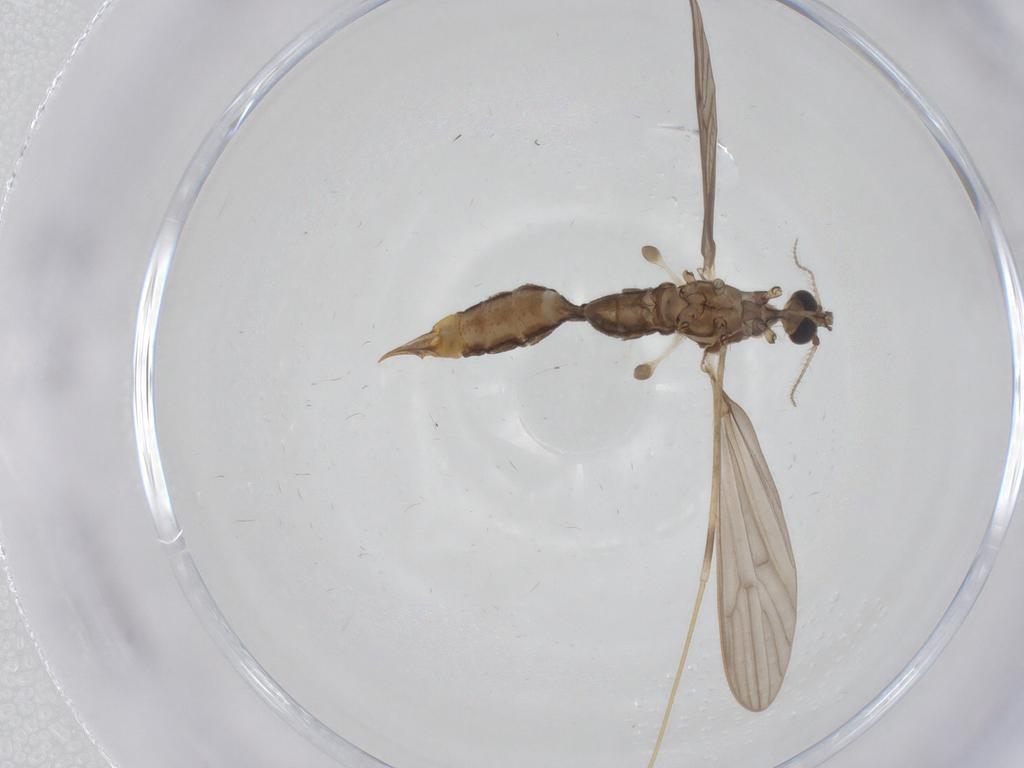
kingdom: Animalia
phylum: Arthropoda
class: Insecta
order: Diptera
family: Limoniidae
